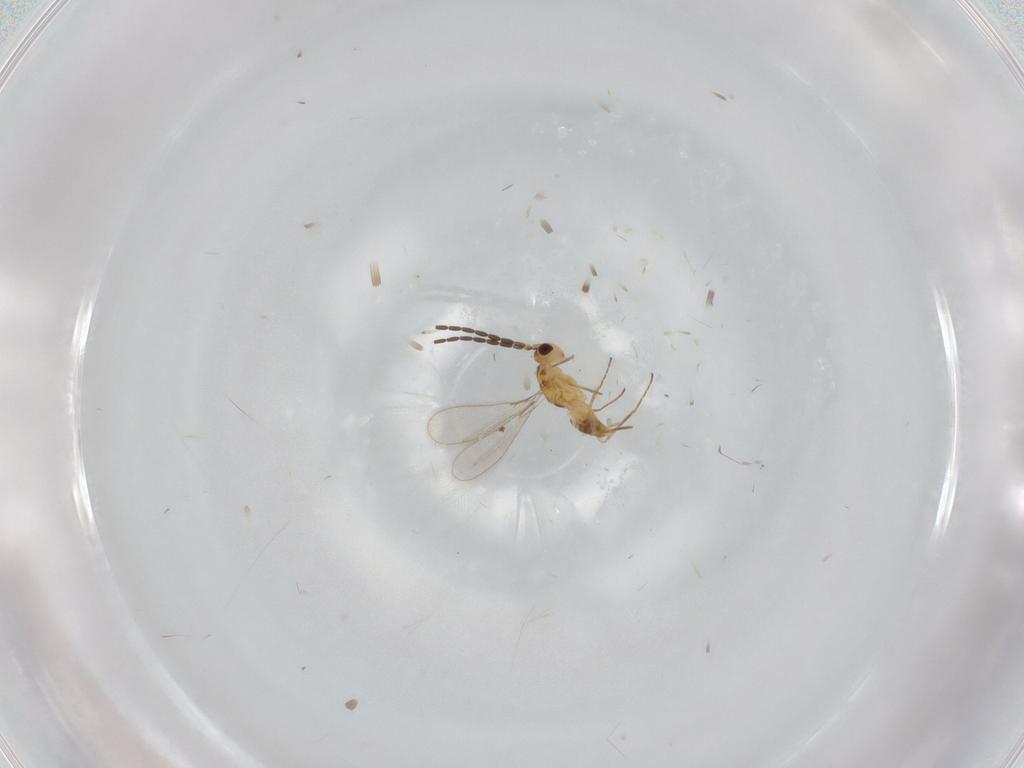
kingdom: Animalia
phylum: Arthropoda
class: Insecta
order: Hymenoptera
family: Mymaridae
